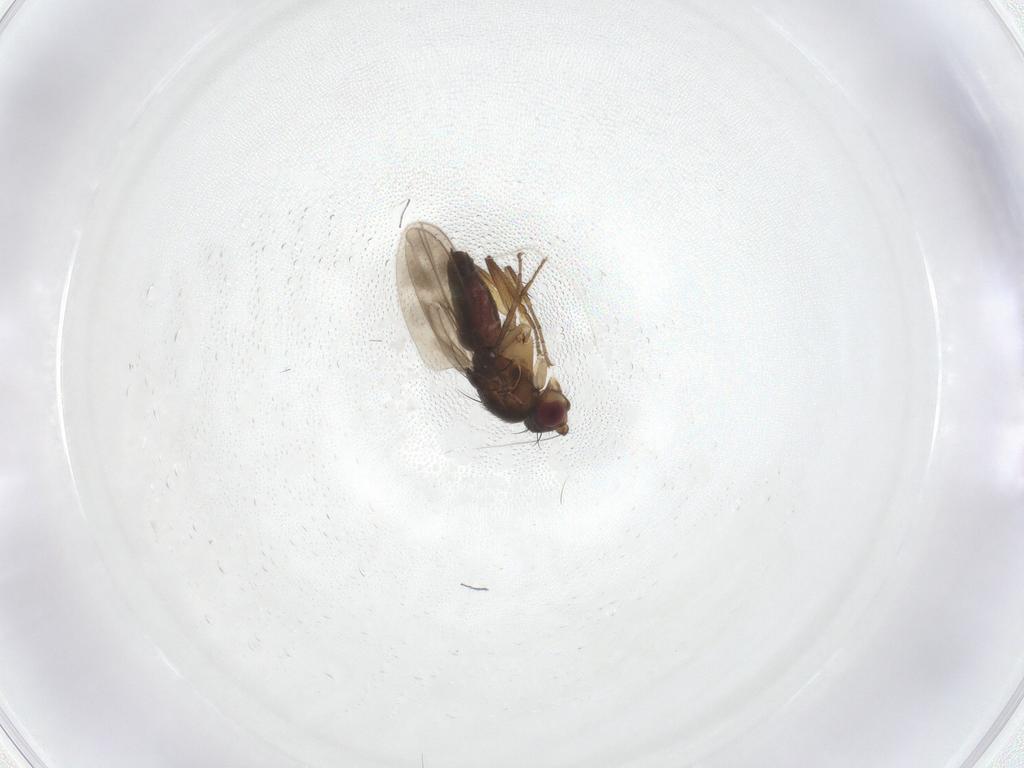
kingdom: Animalia
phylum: Arthropoda
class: Insecta
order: Diptera
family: Sphaeroceridae
